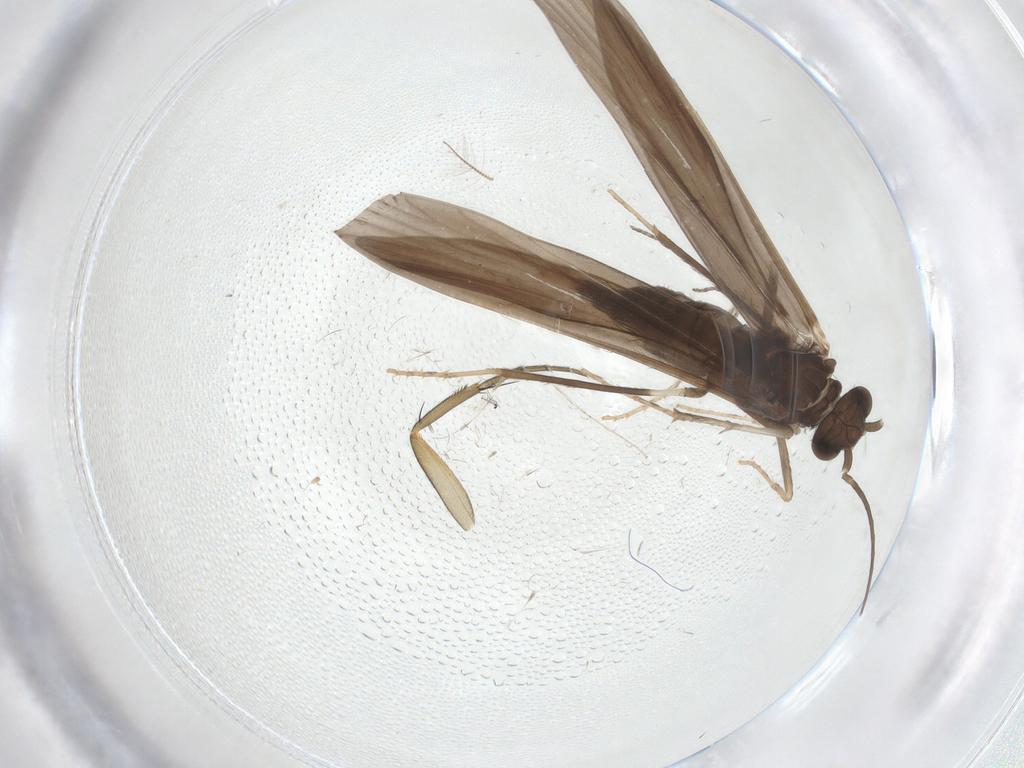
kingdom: Animalia
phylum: Arthropoda
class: Insecta
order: Trichoptera
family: Xiphocentronidae
